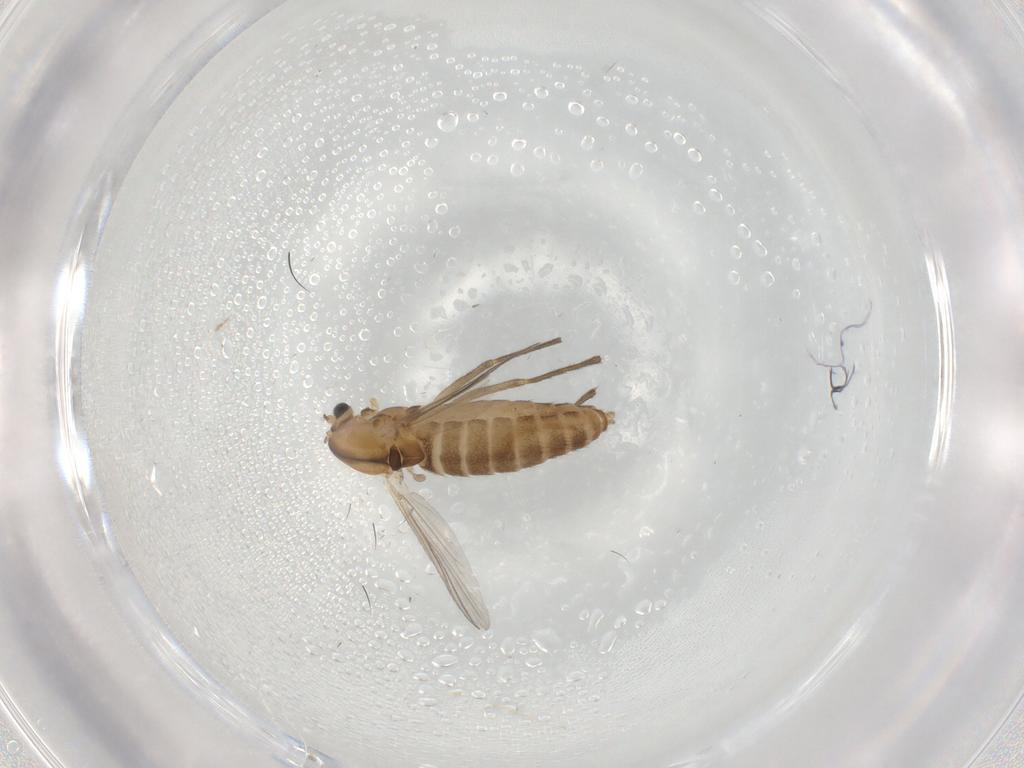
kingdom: Animalia
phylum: Arthropoda
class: Insecta
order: Diptera
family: Chironomidae
